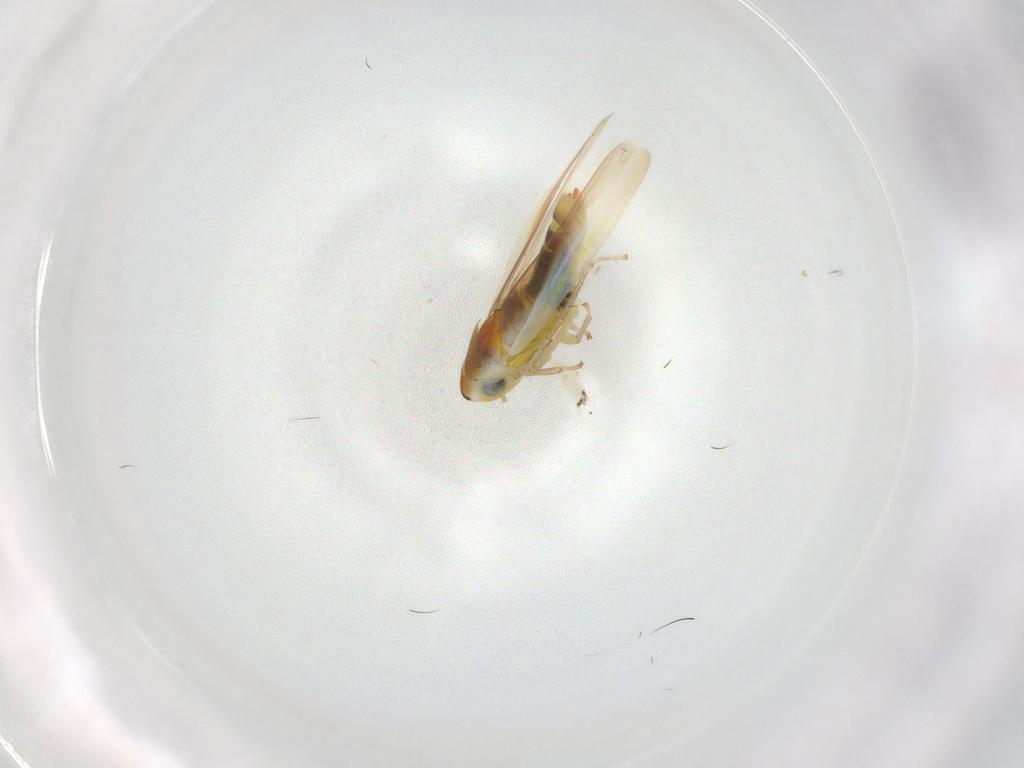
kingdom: Animalia
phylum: Arthropoda
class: Insecta
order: Hemiptera
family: Cicadellidae
